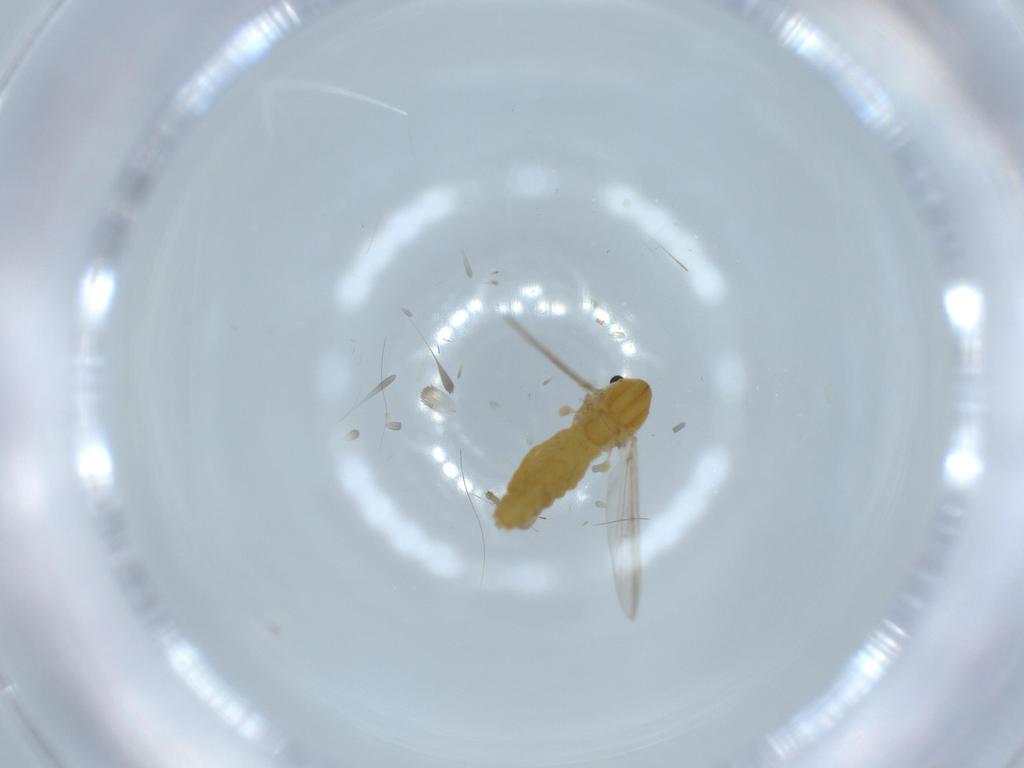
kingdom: Animalia
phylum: Arthropoda
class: Insecta
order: Diptera
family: Chironomidae
